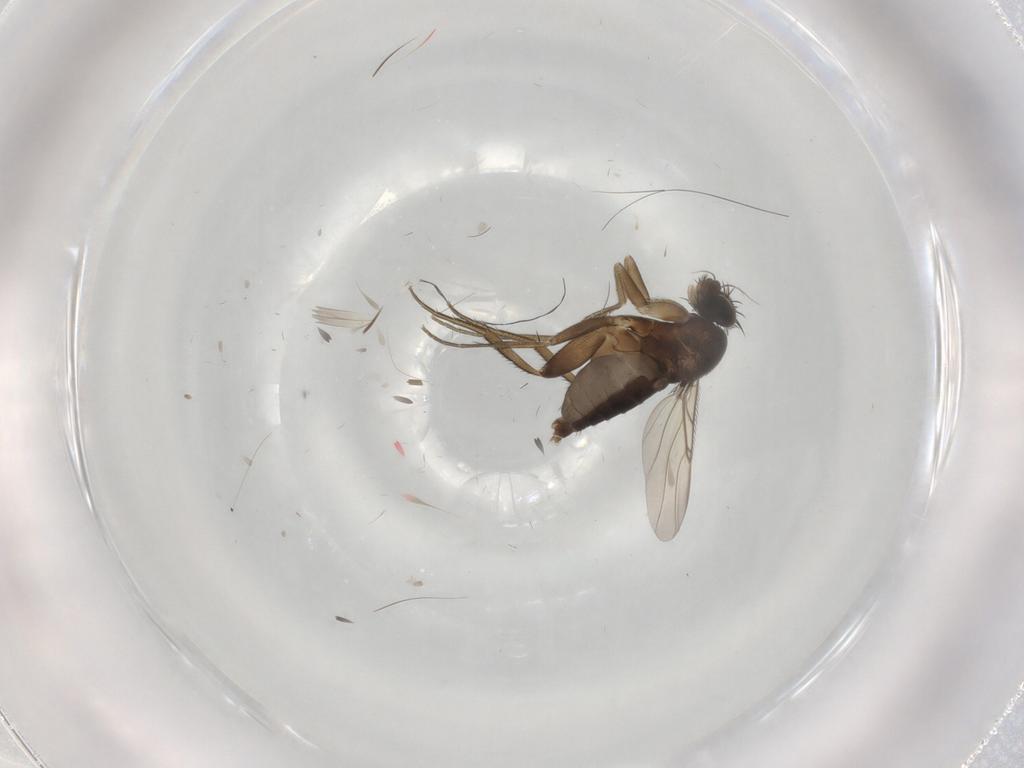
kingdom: Animalia
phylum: Arthropoda
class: Insecta
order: Diptera
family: Phoridae
